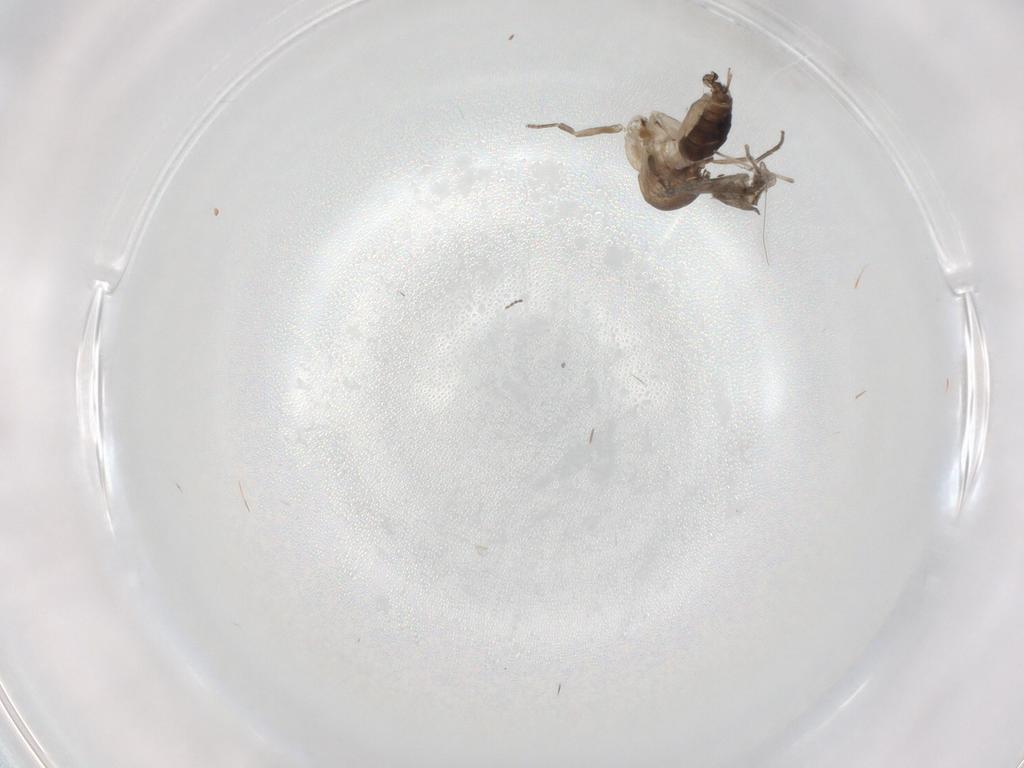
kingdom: Animalia
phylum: Arthropoda
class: Insecta
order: Diptera
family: Cecidomyiidae
